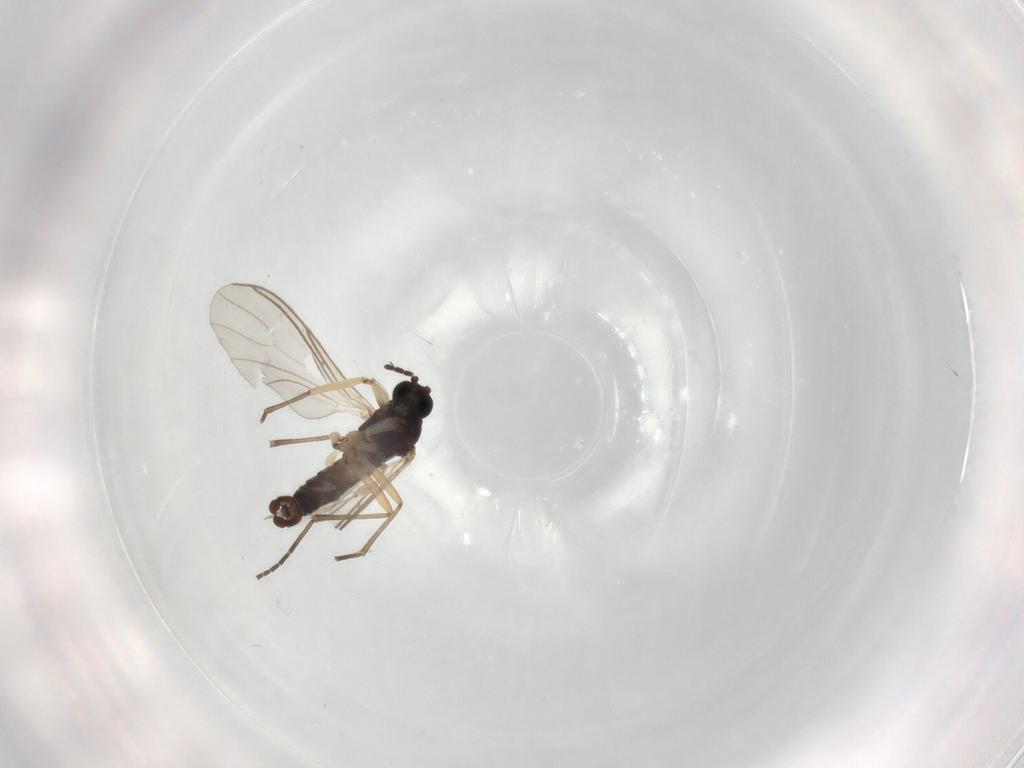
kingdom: Animalia
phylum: Arthropoda
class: Insecta
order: Diptera
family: Sciaridae
